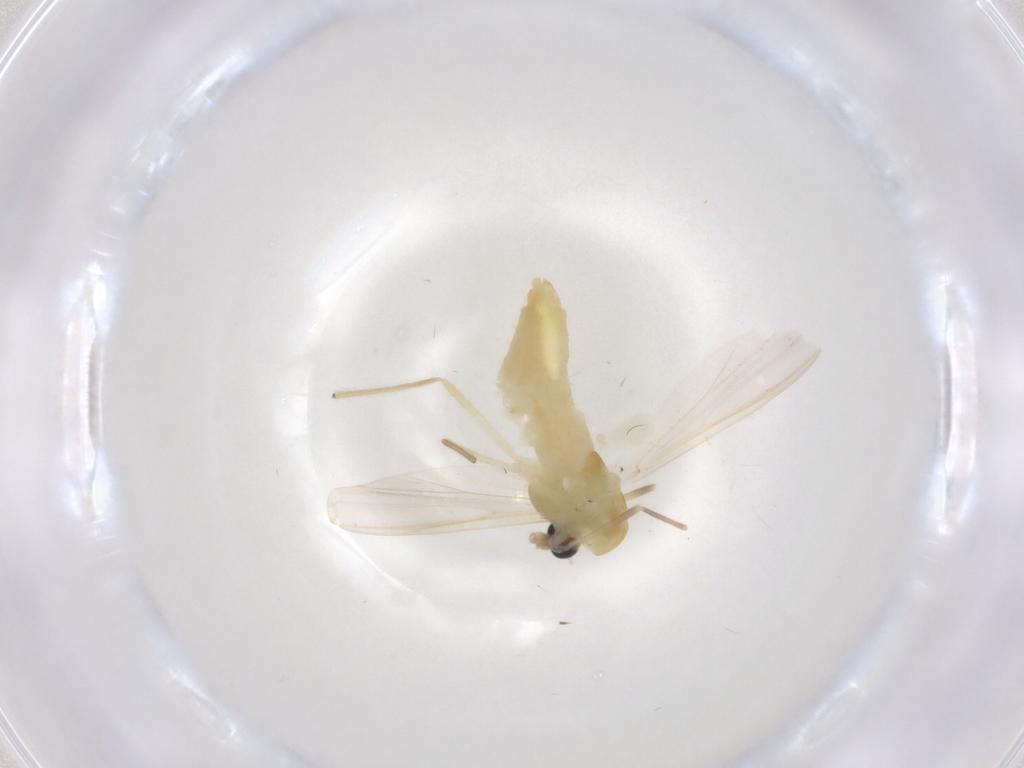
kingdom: Animalia
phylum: Arthropoda
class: Insecta
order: Diptera
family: Chironomidae
